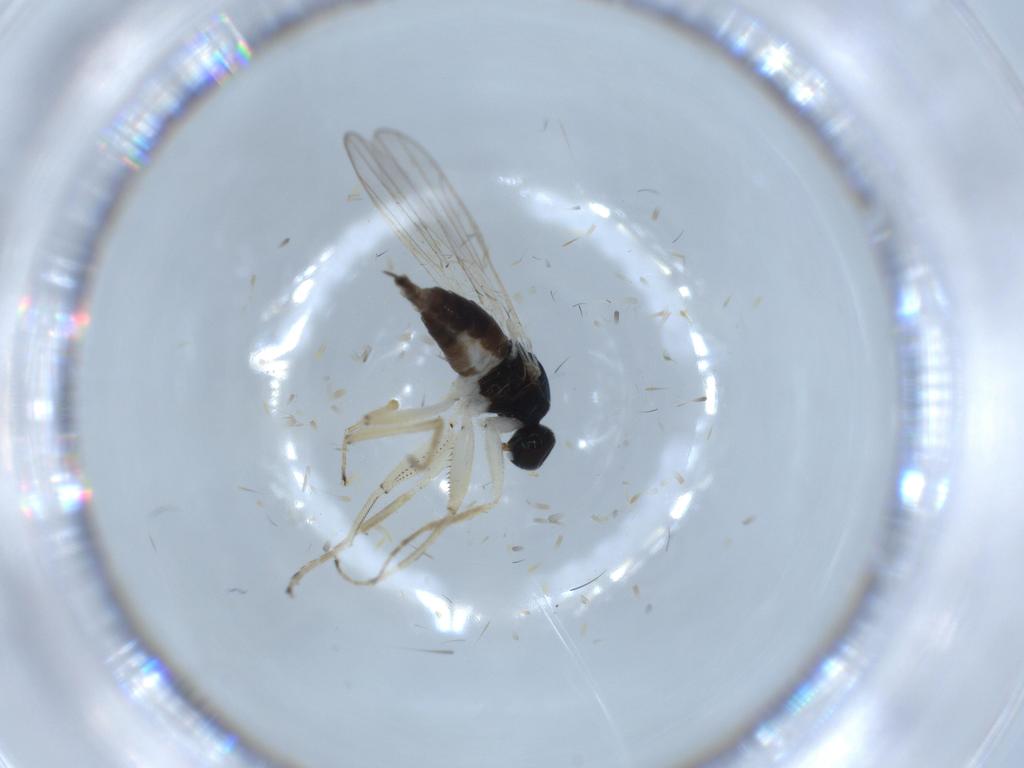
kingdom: Animalia
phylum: Arthropoda
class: Insecta
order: Diptera
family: Hybotidae
